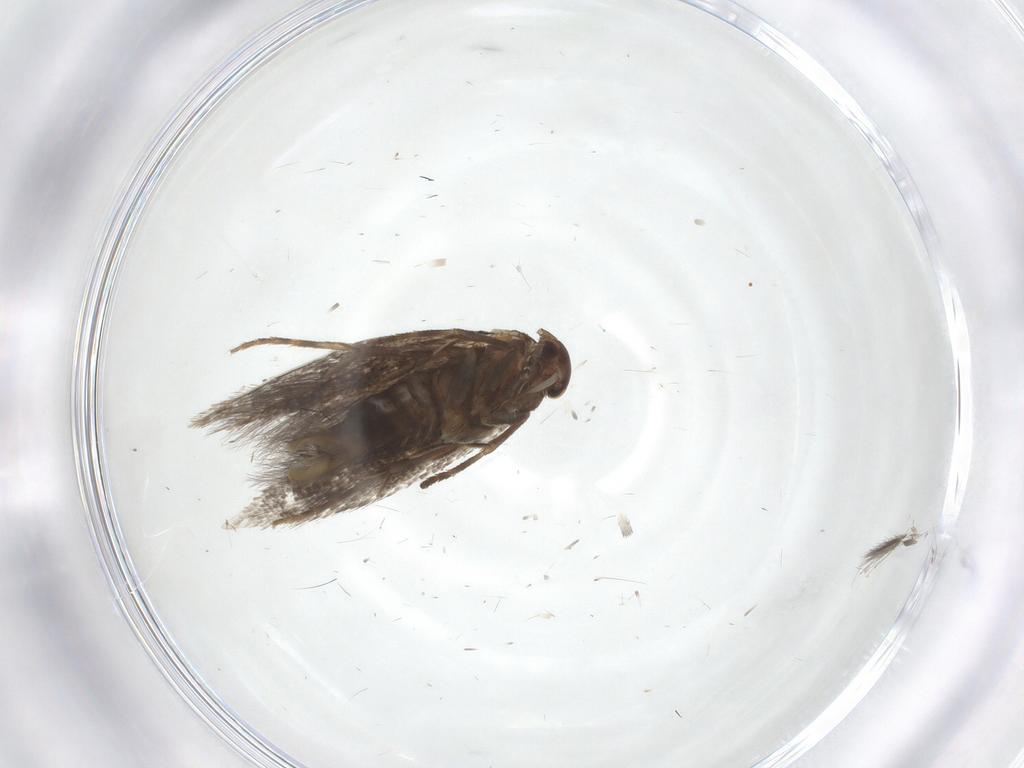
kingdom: Animalia
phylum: Arthropoda
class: Insecta
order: Lepidoptera
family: Elachistidae
